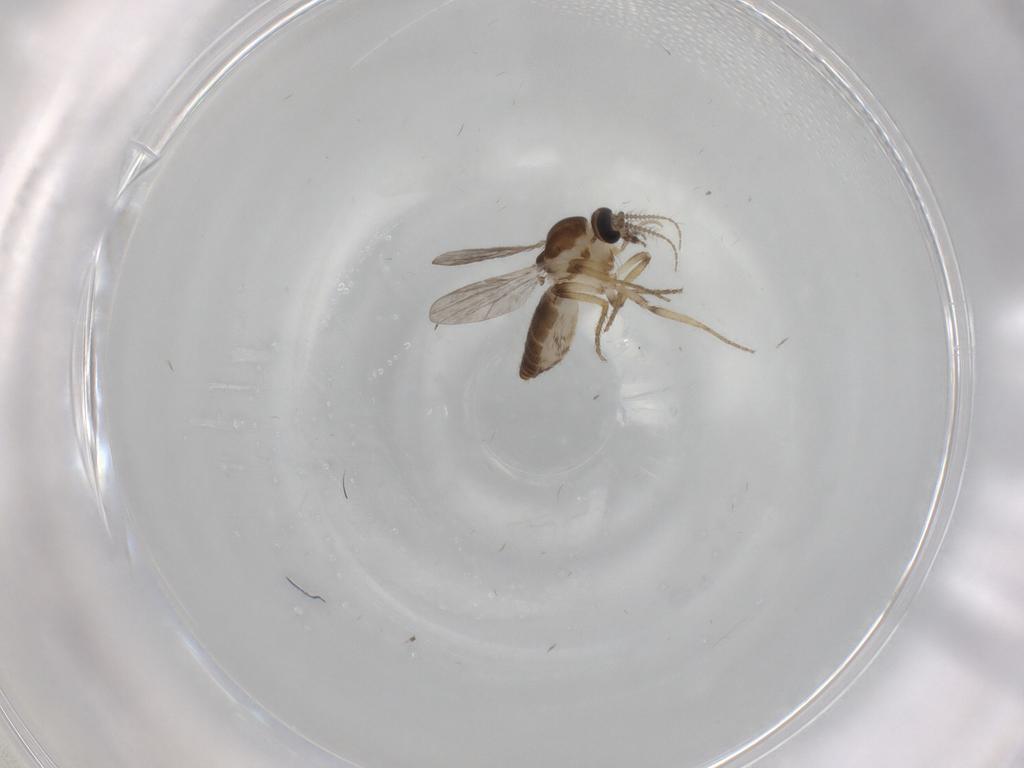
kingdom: Animalia
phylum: Arthropoda
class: Insecta
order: Diptera
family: Ceratopogonidae
